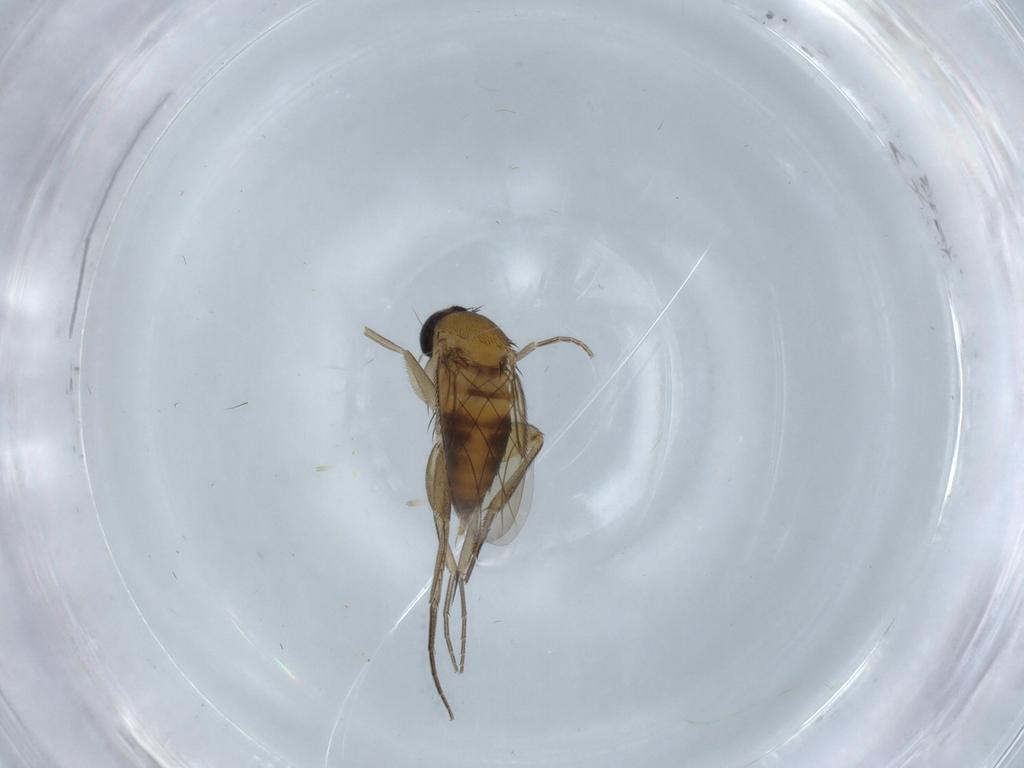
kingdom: Animalia
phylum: Arthropoda
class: Insecta
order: Diptera
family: Phoridae
